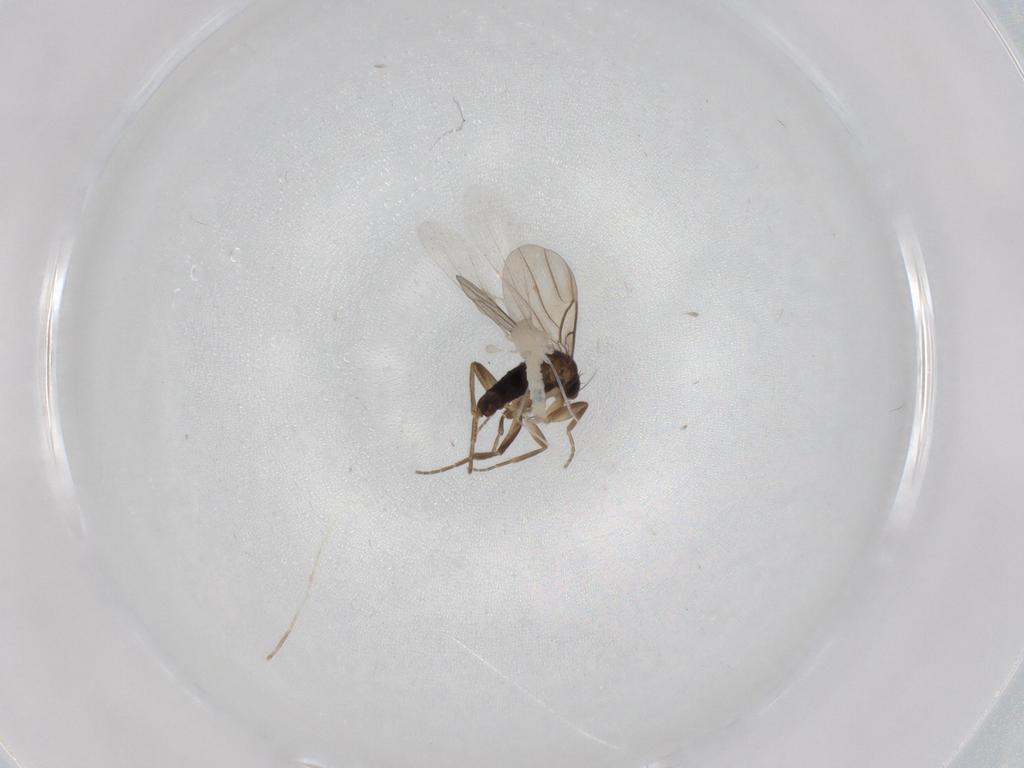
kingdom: Animalia
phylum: Arthropoda
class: Insecta
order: Diptera
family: Phoridae
